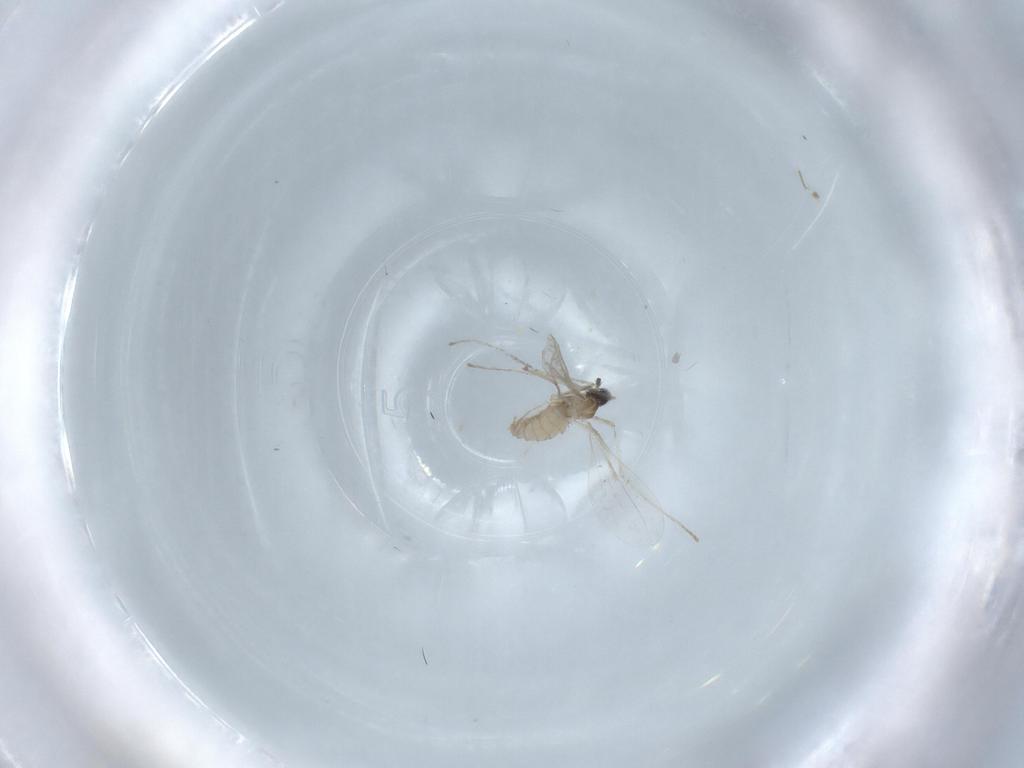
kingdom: Animalia
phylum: Arthropoda
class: Insecta
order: Diptera
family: Cecidomyiidae
